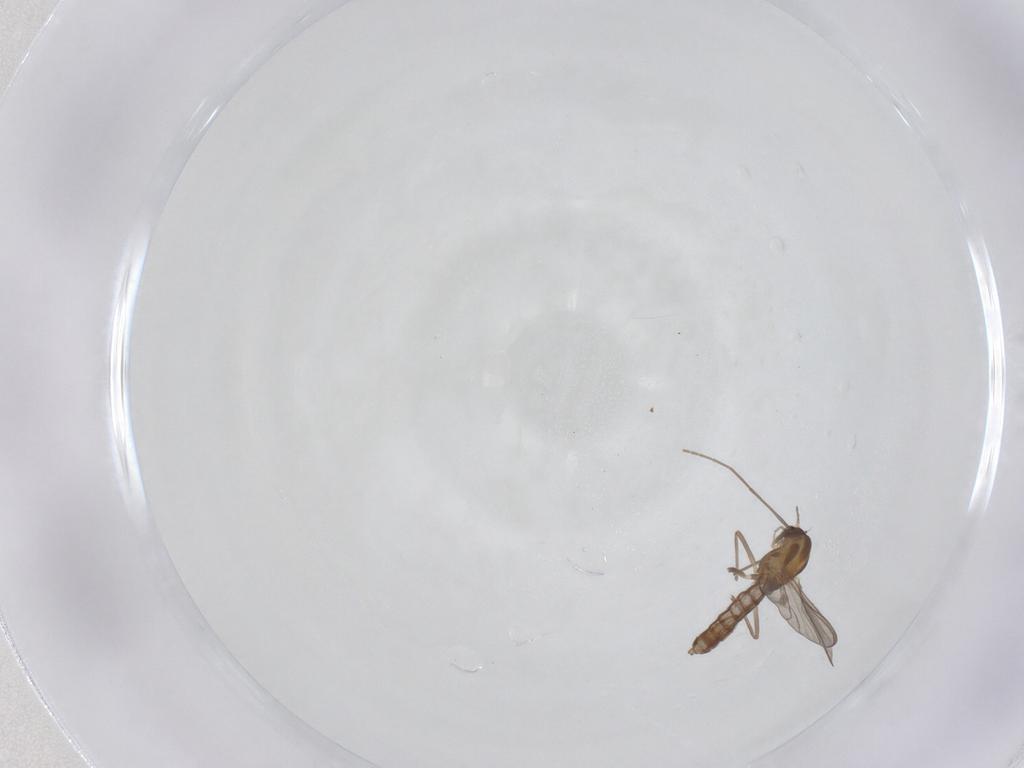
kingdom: Animalia
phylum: Arthropoda
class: Insecta
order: Diptera
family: Chironomidae
